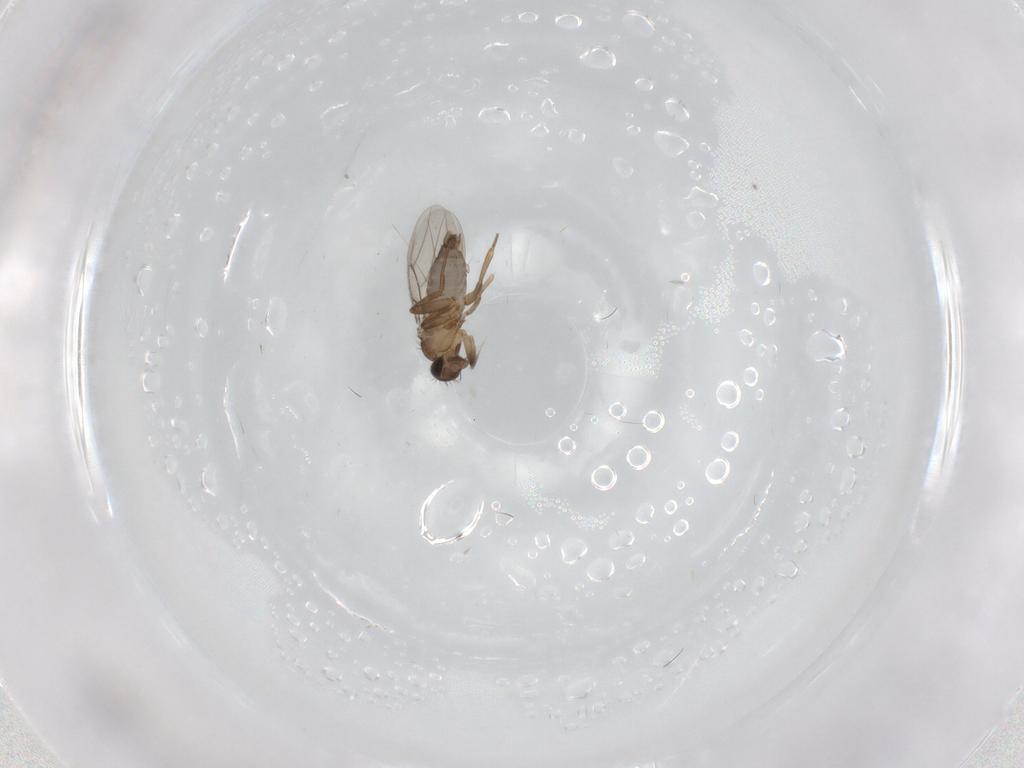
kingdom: Animalia
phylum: Arthropoda
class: Insecta
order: Diptera
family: Phoridae
